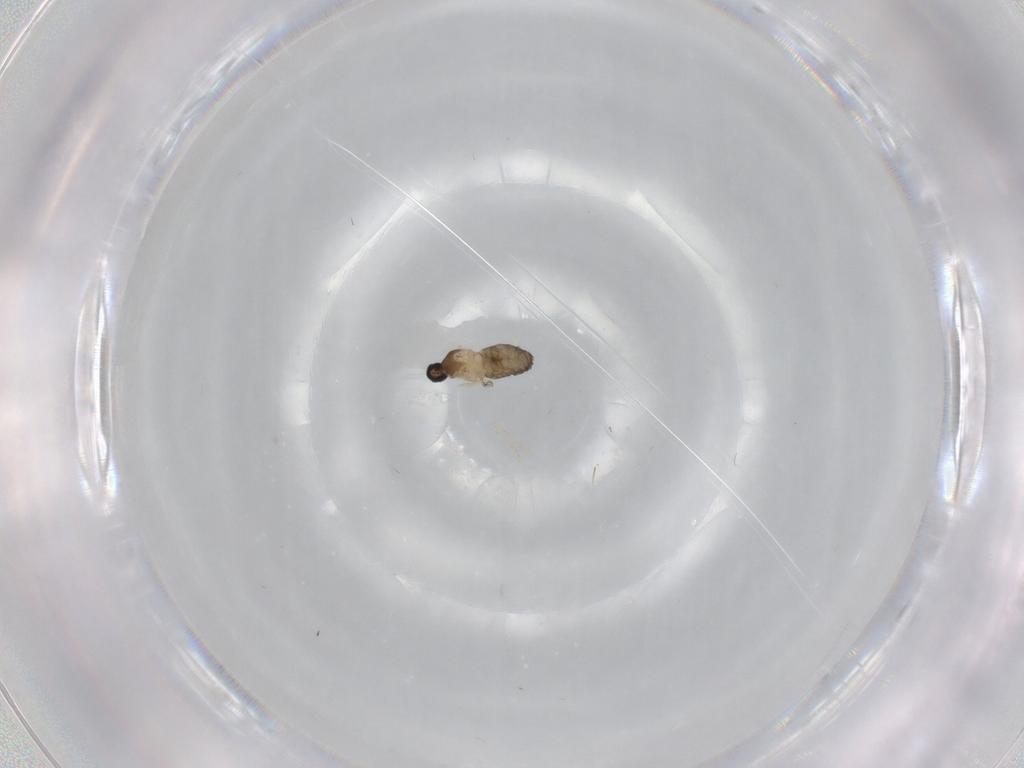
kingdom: Animalia
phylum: Arthropoda
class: Insecta
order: Diptera
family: Cecidomyiidae
